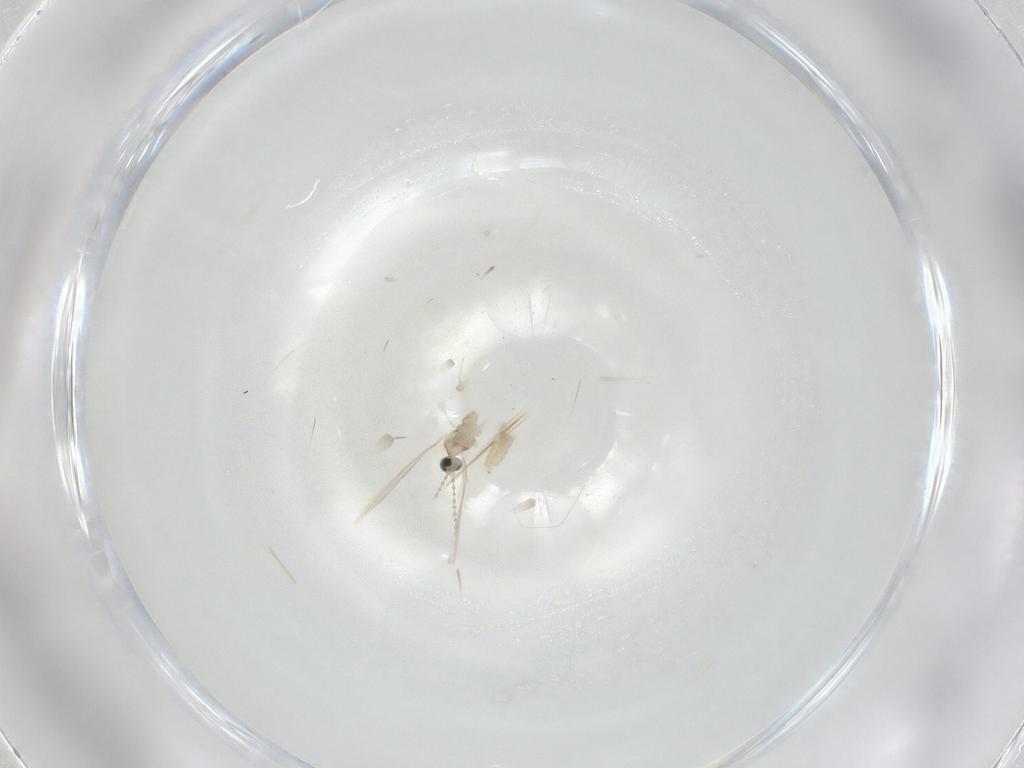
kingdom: Animalia
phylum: Arthropoda
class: Insecta
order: Diptera
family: Cecidomyiidae
